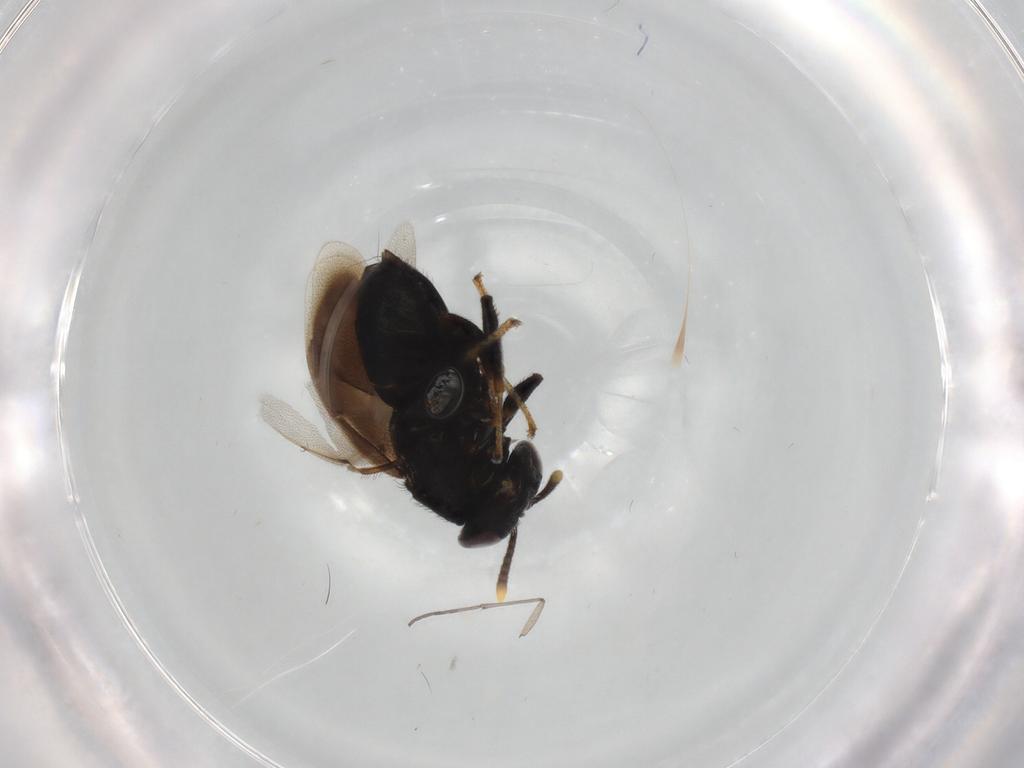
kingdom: Animalia
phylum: Arthropoda
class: Insecta
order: Hymenoptera
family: Tanaostigmatidae
